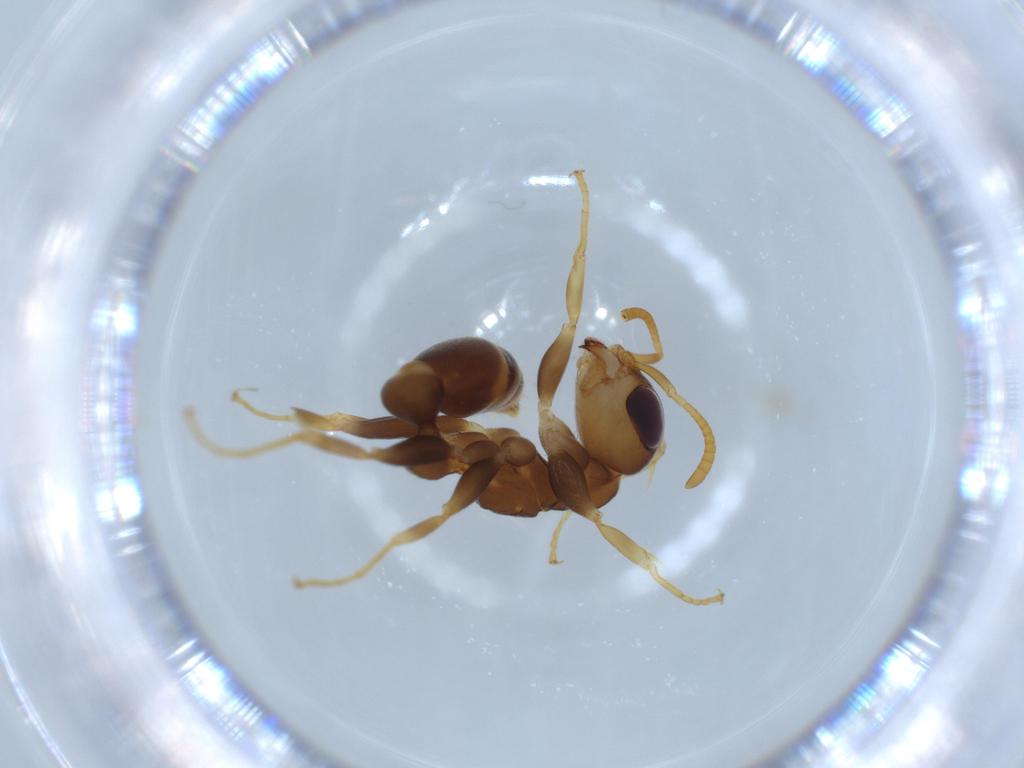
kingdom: Animalia
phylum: Arthropoda
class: Insecta
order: Hymenoptera
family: Formicidae
